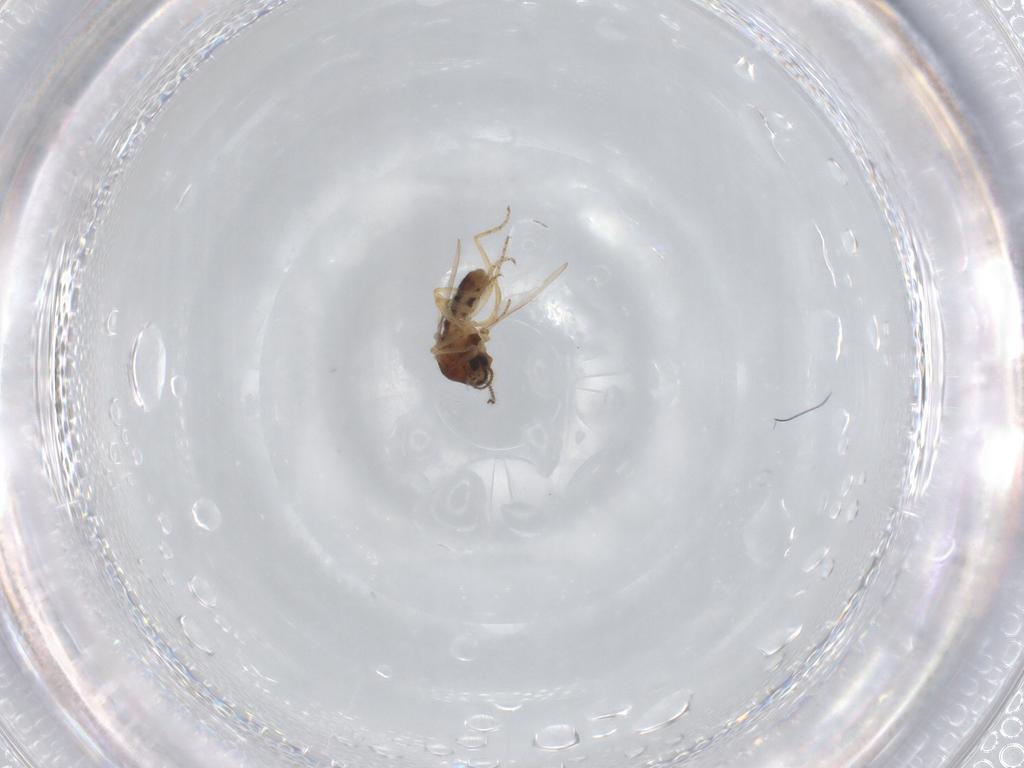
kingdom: Animalia
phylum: Arthropoda
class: Insecta
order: Diptera
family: Ceratopogonidae
